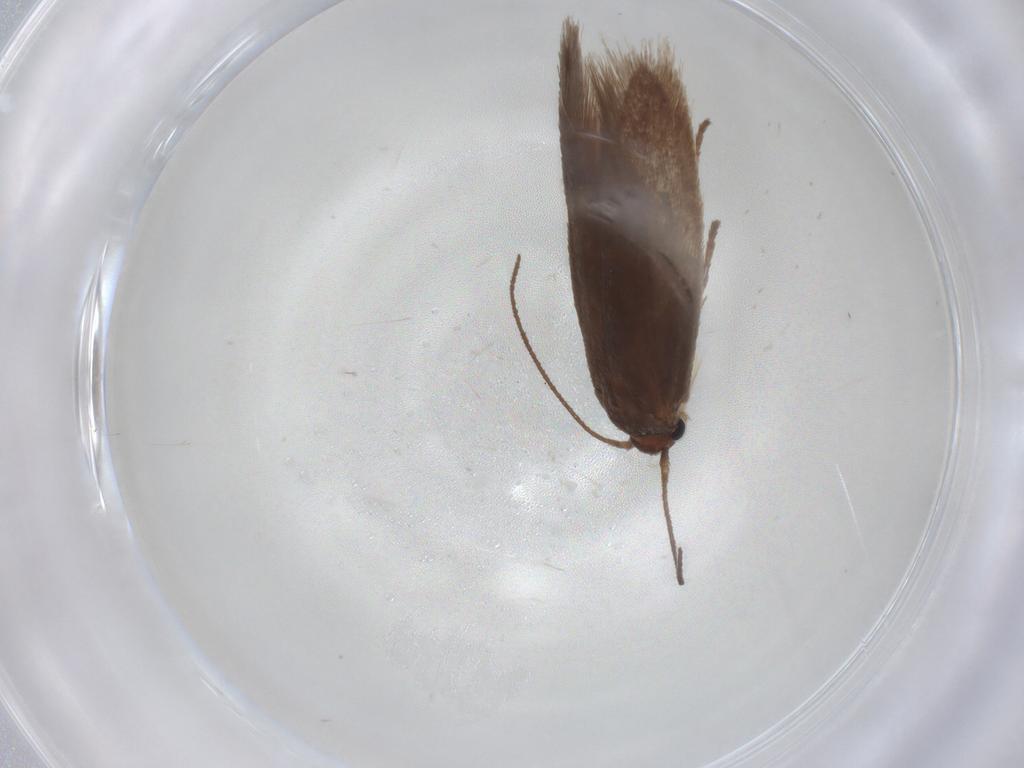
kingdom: Animalia
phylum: Arthropoda
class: Insecta
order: Lepidoptera
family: Limacodidae
